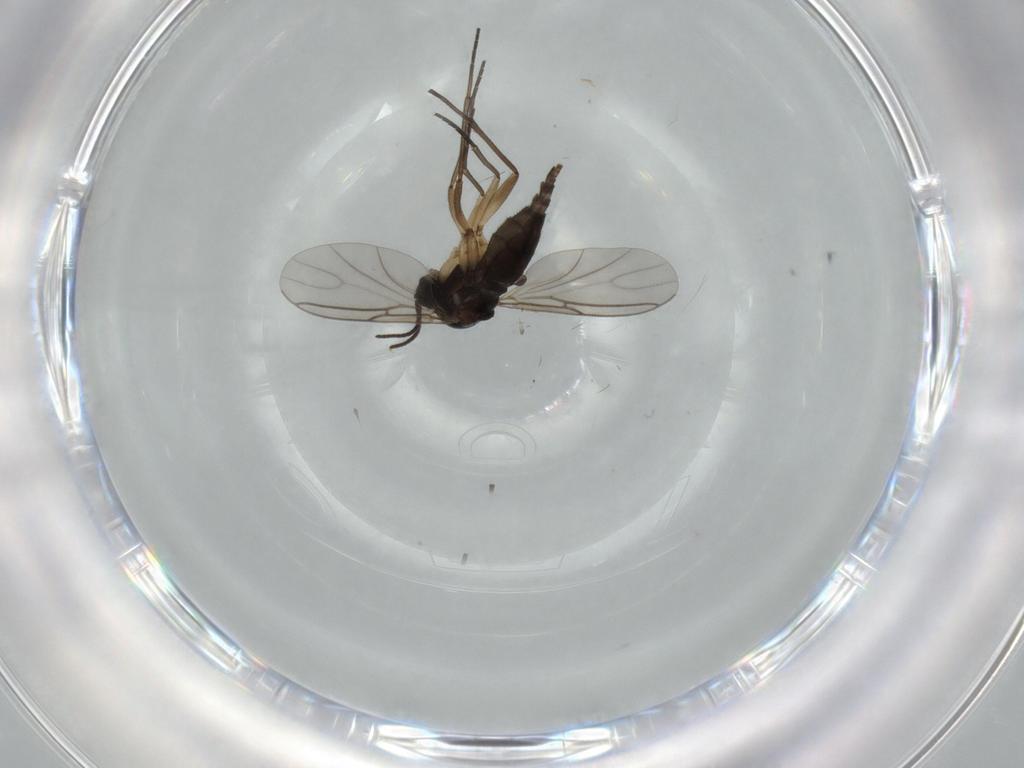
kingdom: Animalia
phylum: Arthropoda
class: Insecta
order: Diptera
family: Sciaridae
